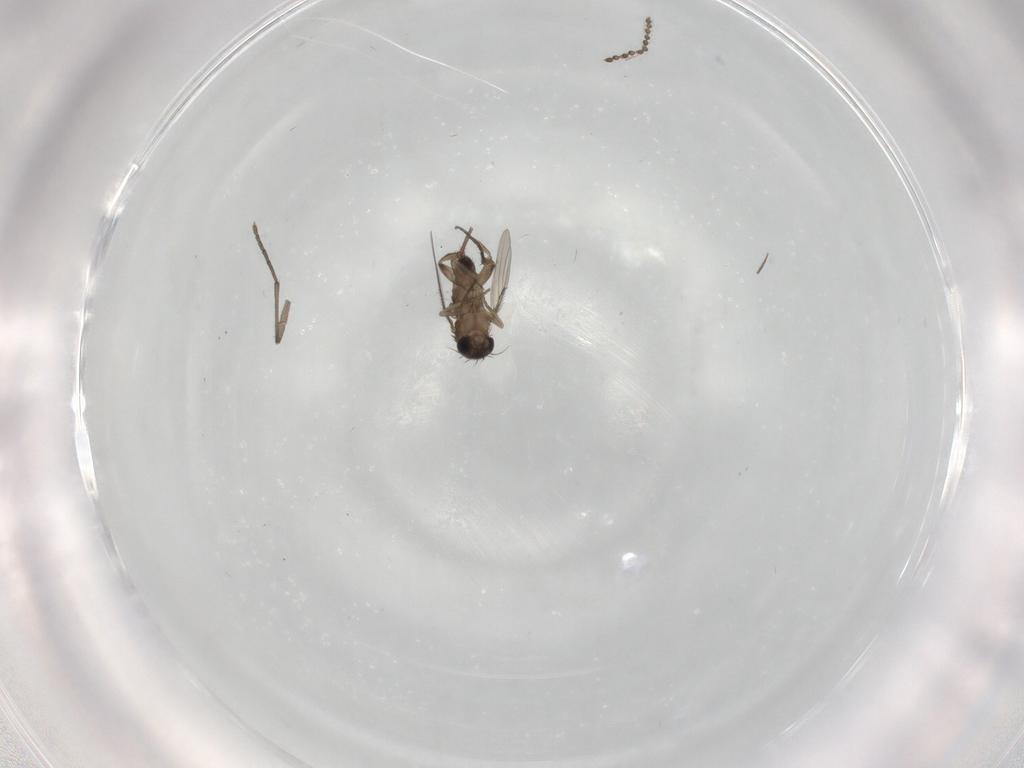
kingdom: Animalia
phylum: Arthropoda
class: Insecta
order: Diptera
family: Phoridae
